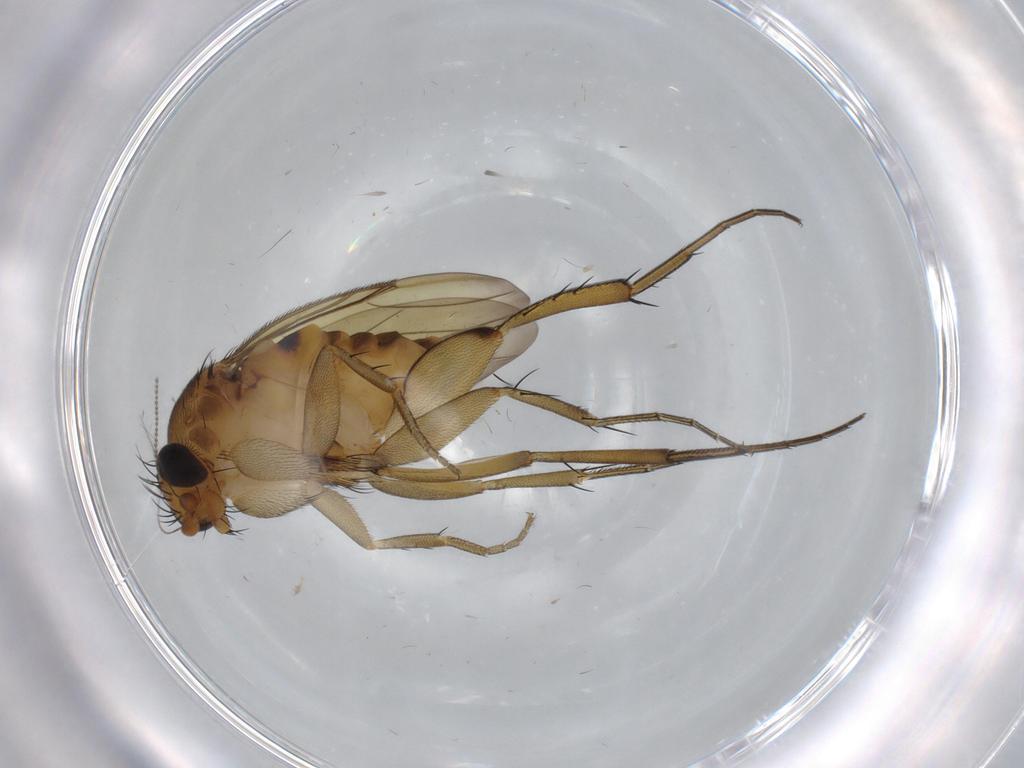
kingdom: Animalia
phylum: Arthropoda
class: Insecta
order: Diptera
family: Phoridae
